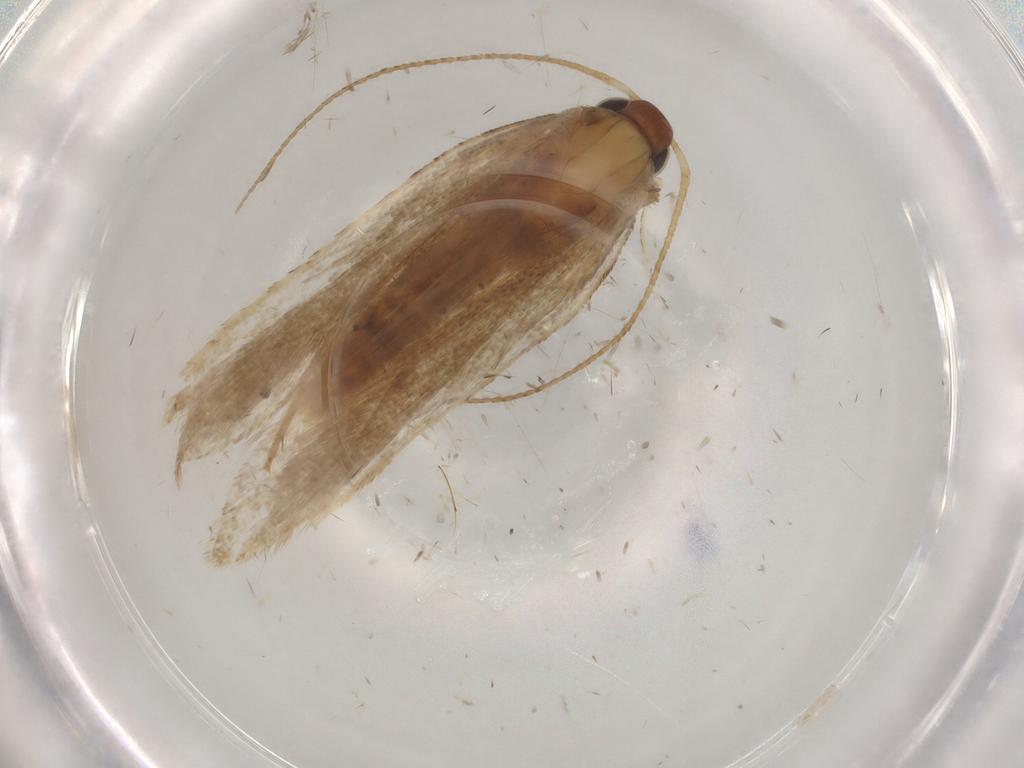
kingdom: Animalia
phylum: Arthropoda
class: Insecta
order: Lepidoptera
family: Gelechiidae
